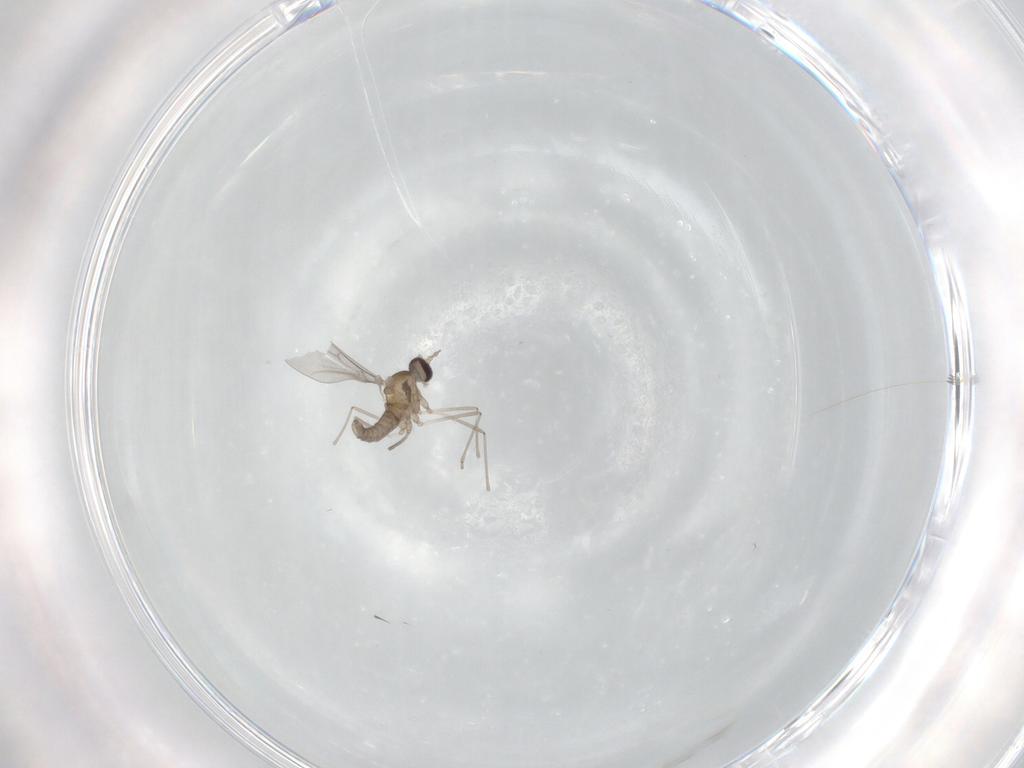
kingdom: Animalia
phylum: Arthropoda
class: Insecta
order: Diptera
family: Cecidomyiidae
